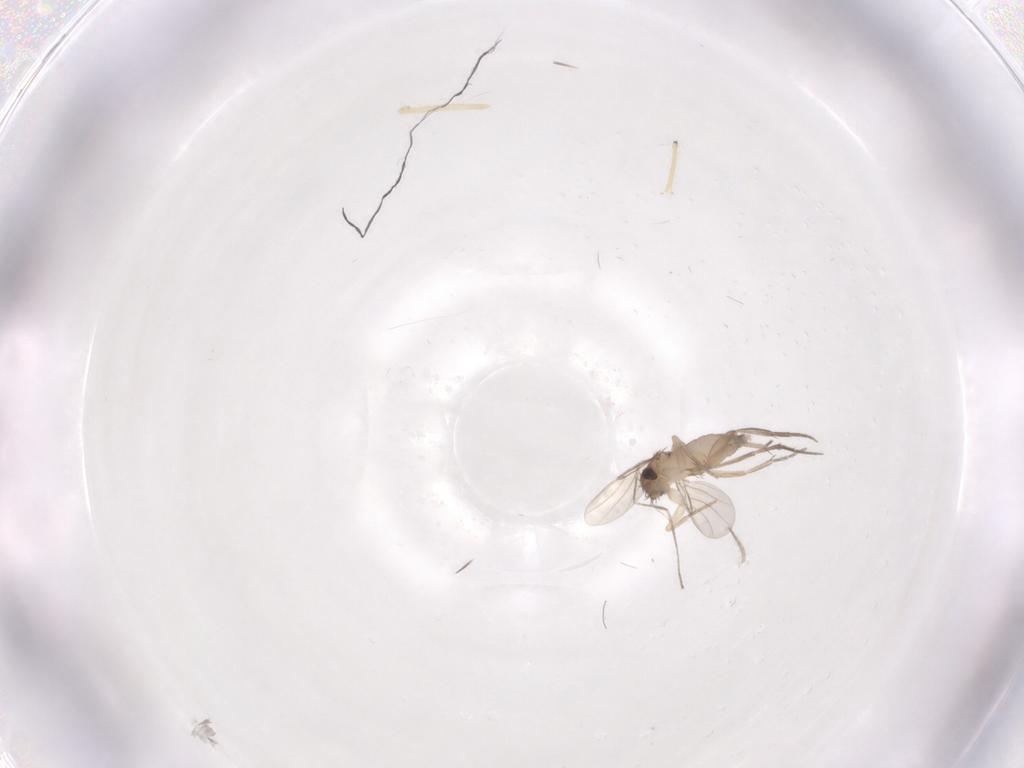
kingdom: Animalia
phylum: Arthropoda
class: Insecta
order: Diptera
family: Chironomidae
